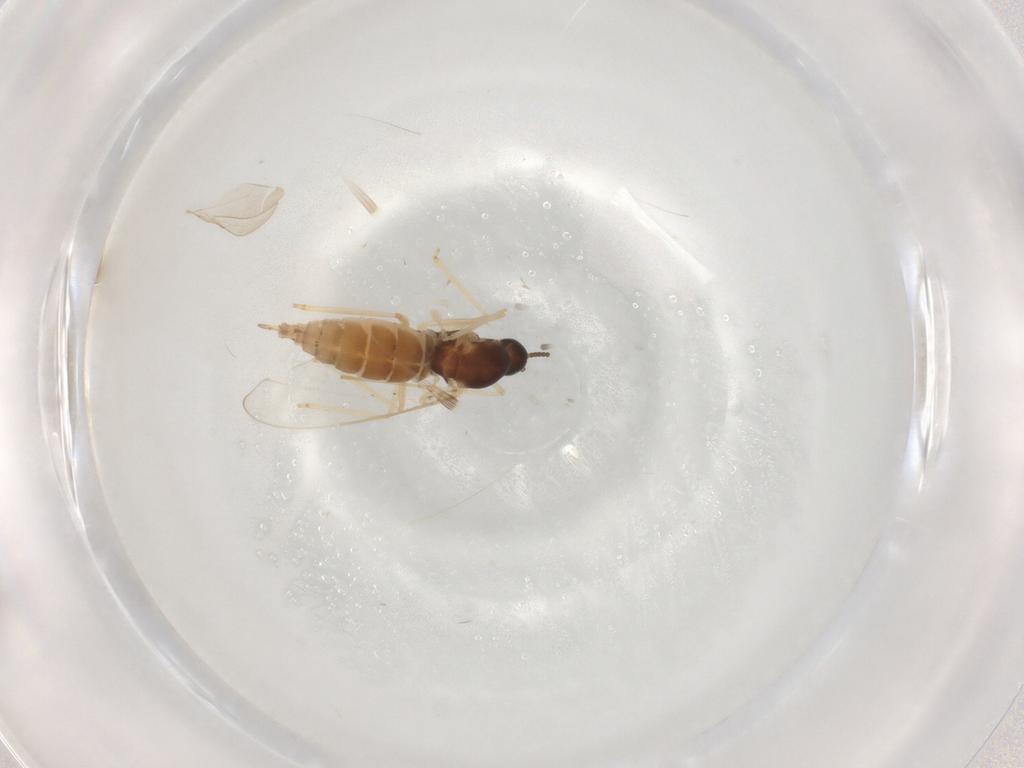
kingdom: Animalia
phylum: Arthropoda
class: Insecta
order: Diptera
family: Cecidomyiidae
